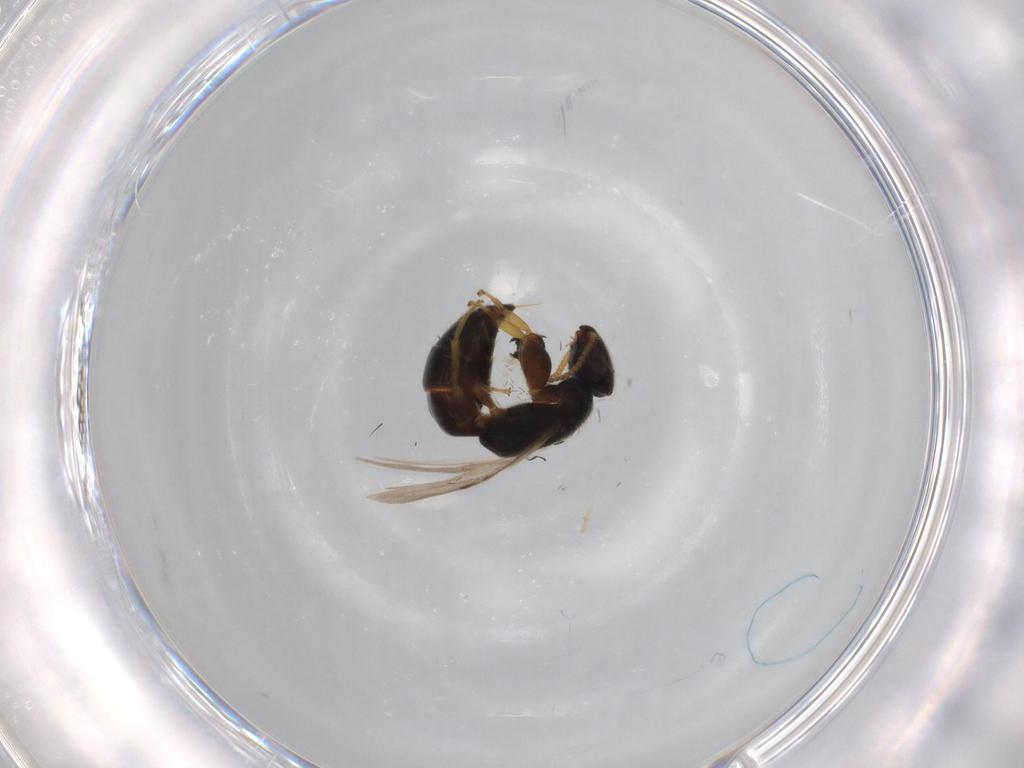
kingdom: Animalia
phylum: Arthropoda
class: Insecta
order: Hymenoptera
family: Bethylidae
